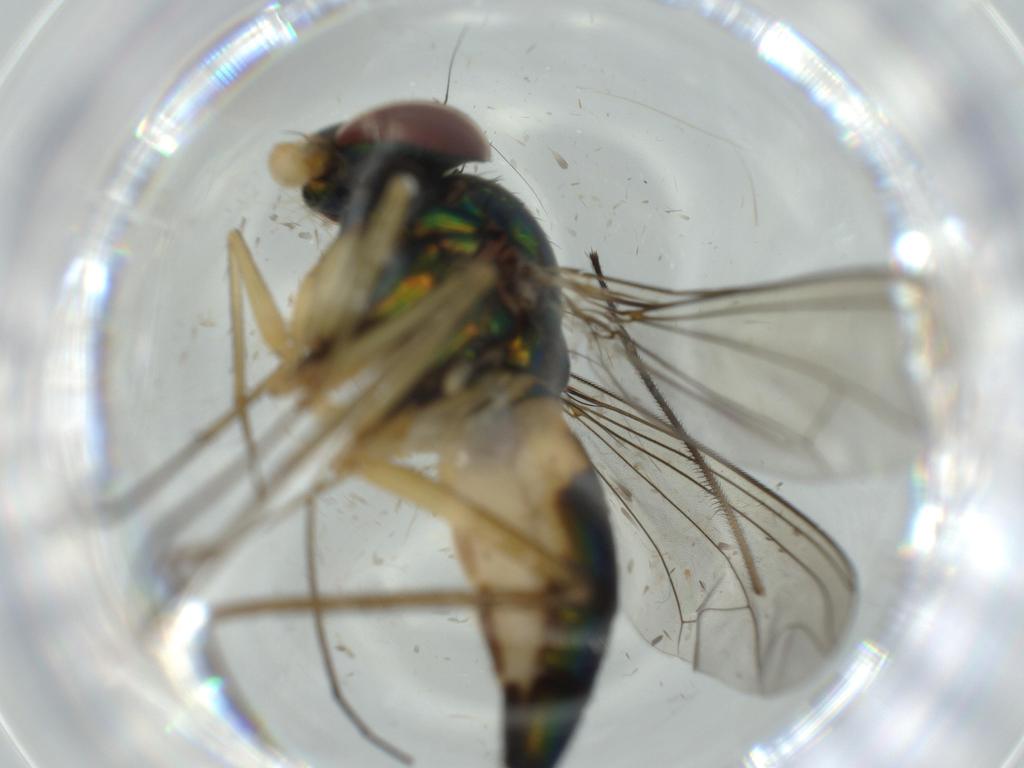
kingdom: Animalia
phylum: Arthropoda
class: Insecta
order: Diptera
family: Dolichopodidae
